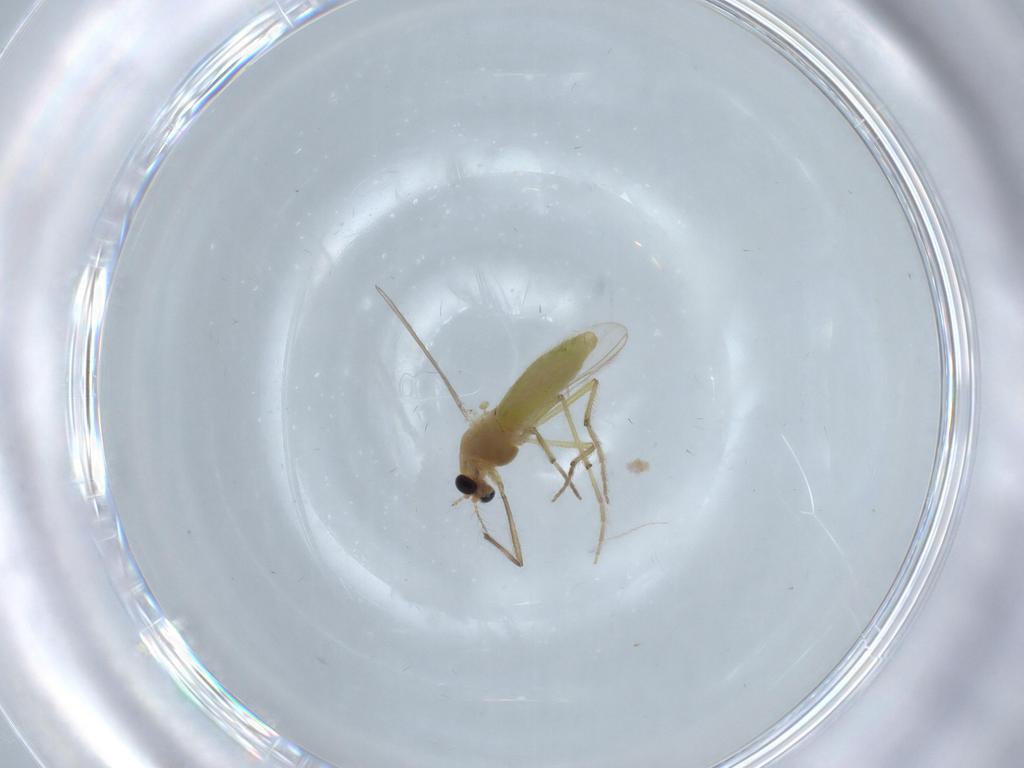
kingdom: Animalia
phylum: Arthropoda
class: Insecta
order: Diptera
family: Chironomidae
